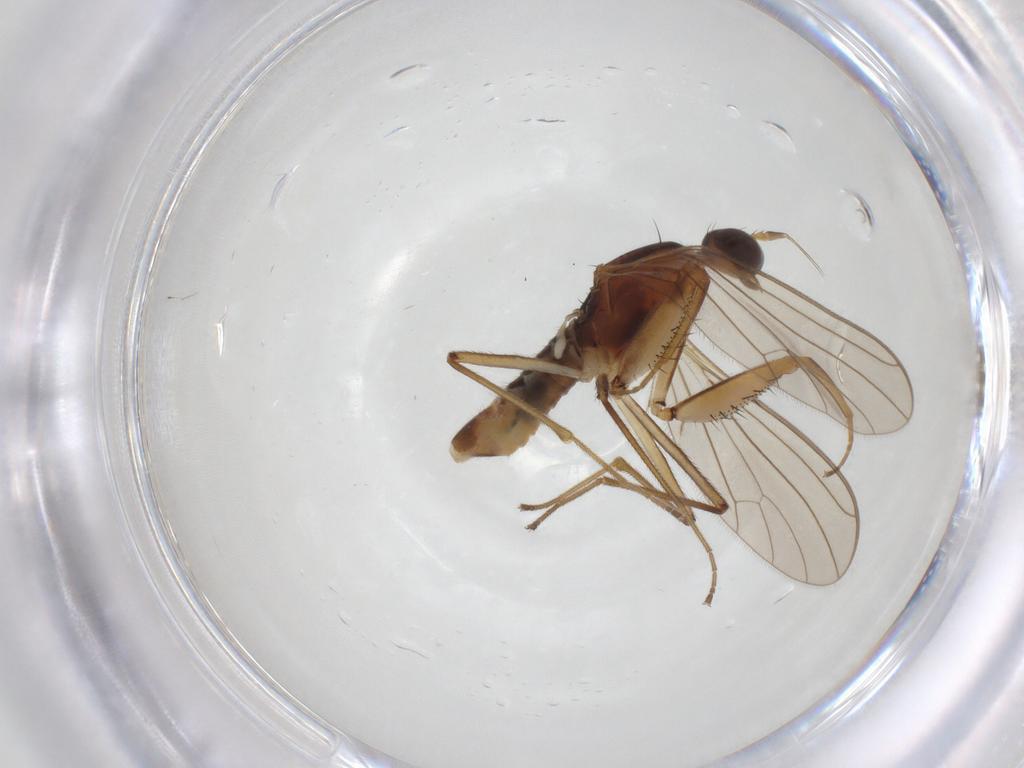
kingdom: Animalia
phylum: Arthropoda
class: Insecta
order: Diptera
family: Empididae
